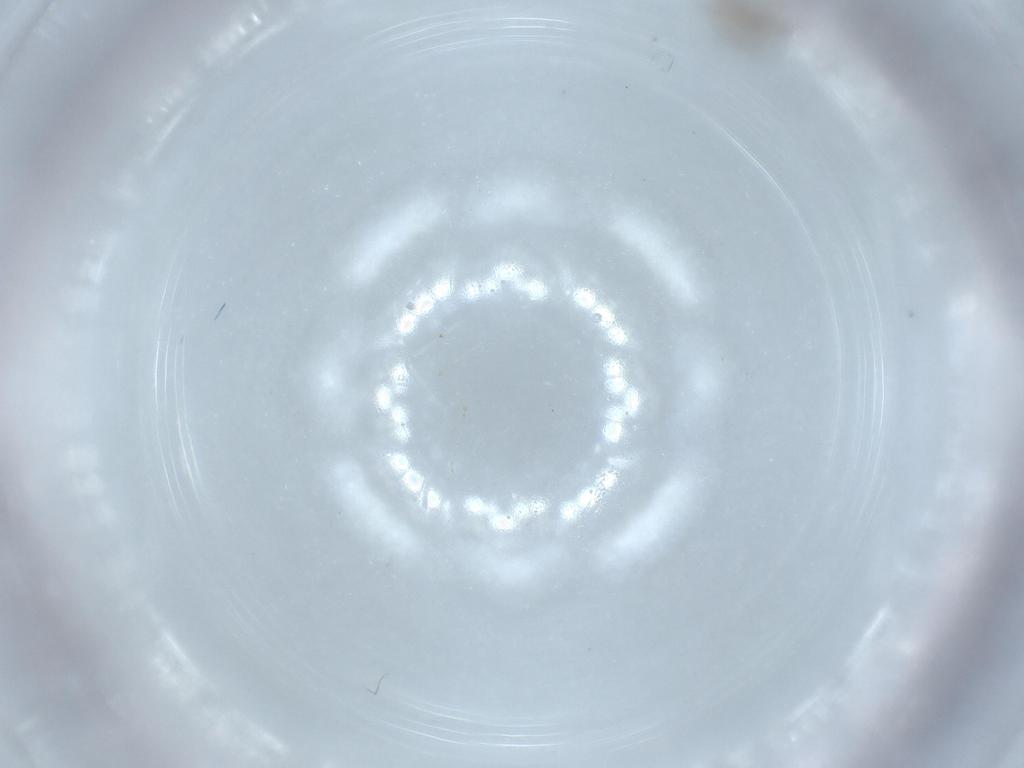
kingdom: Animalia
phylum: Arthropoda
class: Insecta
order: Diptera
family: Cecidomyiidae
